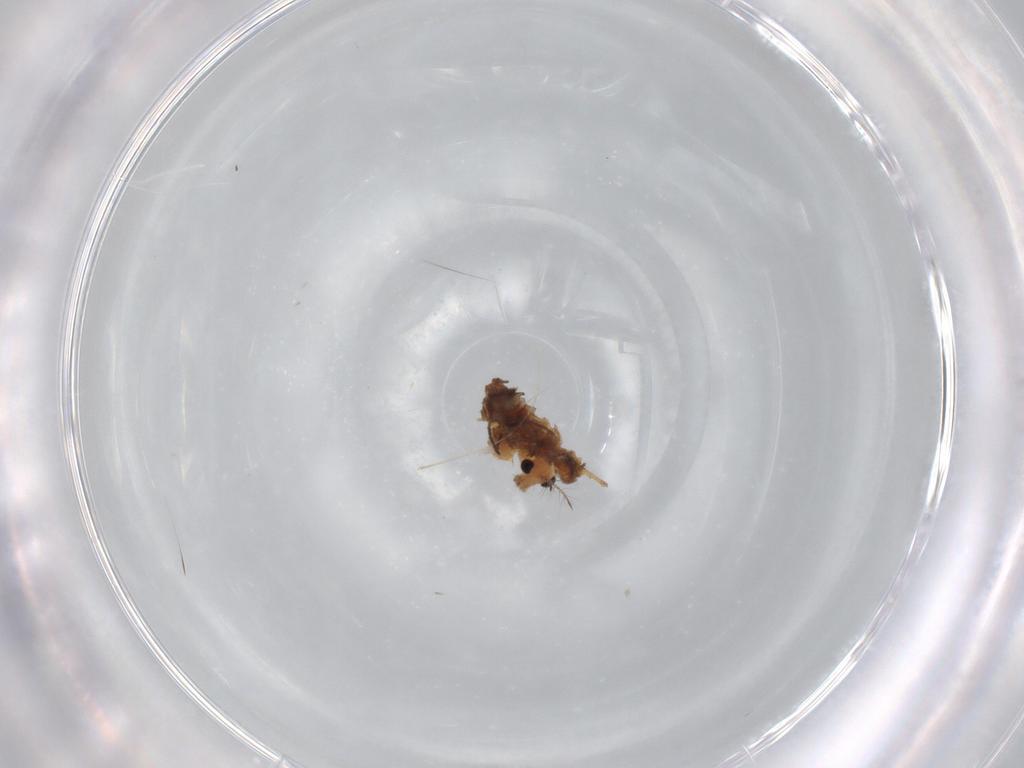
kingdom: Animalia
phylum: Arthropoda
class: Insecta
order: Diptera
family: Chironomidae
